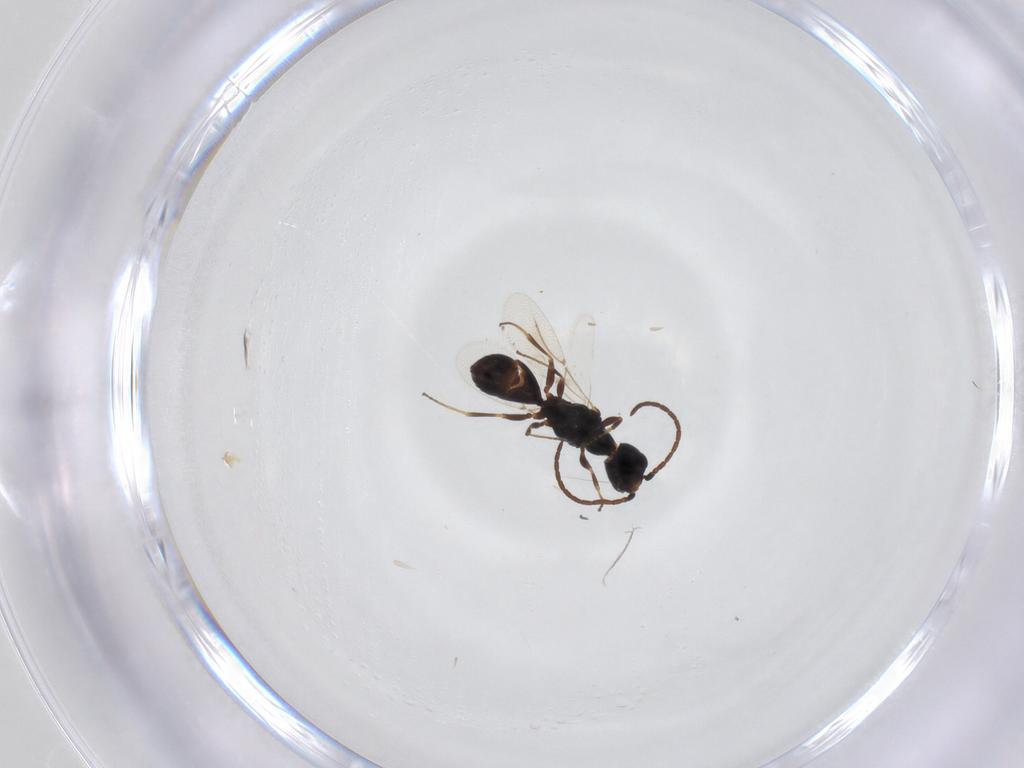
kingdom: Animalia
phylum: Arthropoda
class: Insecta
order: Hymenoptera
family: Bethylidae
